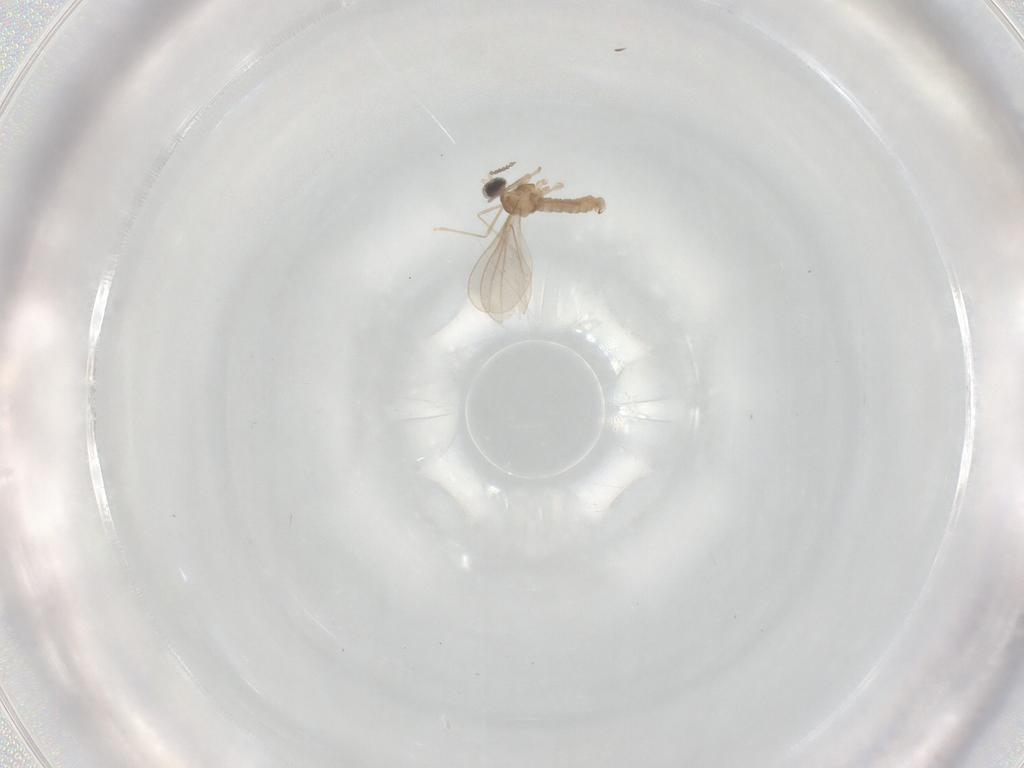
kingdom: Animalia
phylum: Arthropoda
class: Insecta
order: Diptera
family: Cecidomyiidae
